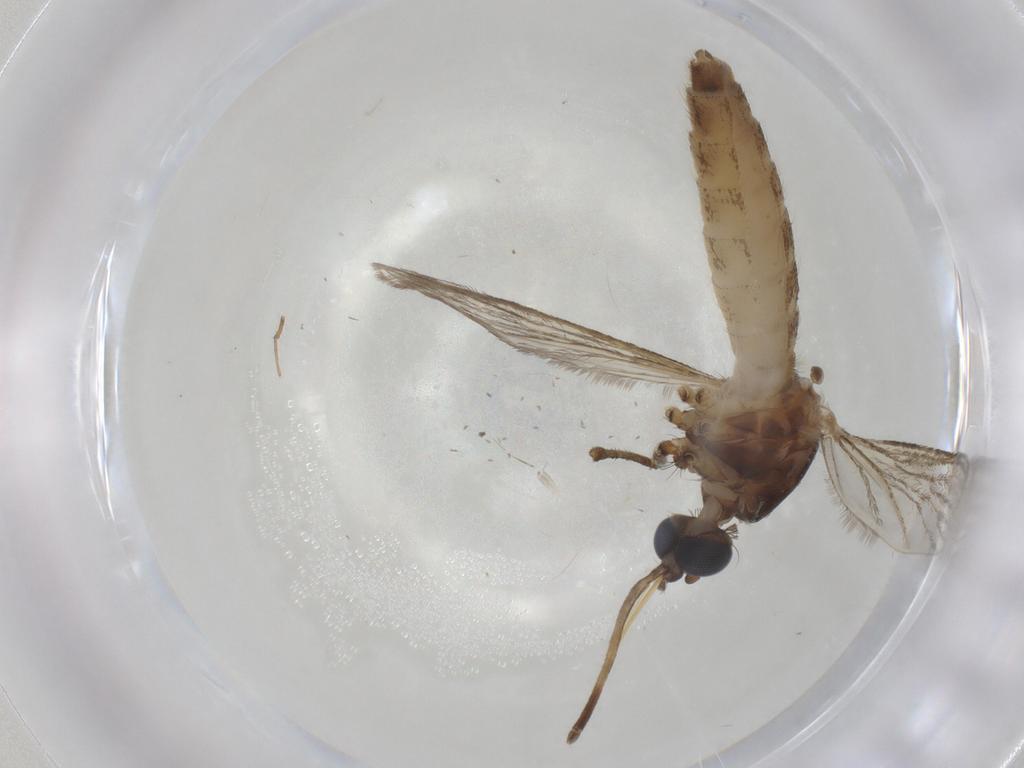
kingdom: Animalia
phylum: Arthropoda
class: Insecta
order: Diptera
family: Chironomidae
